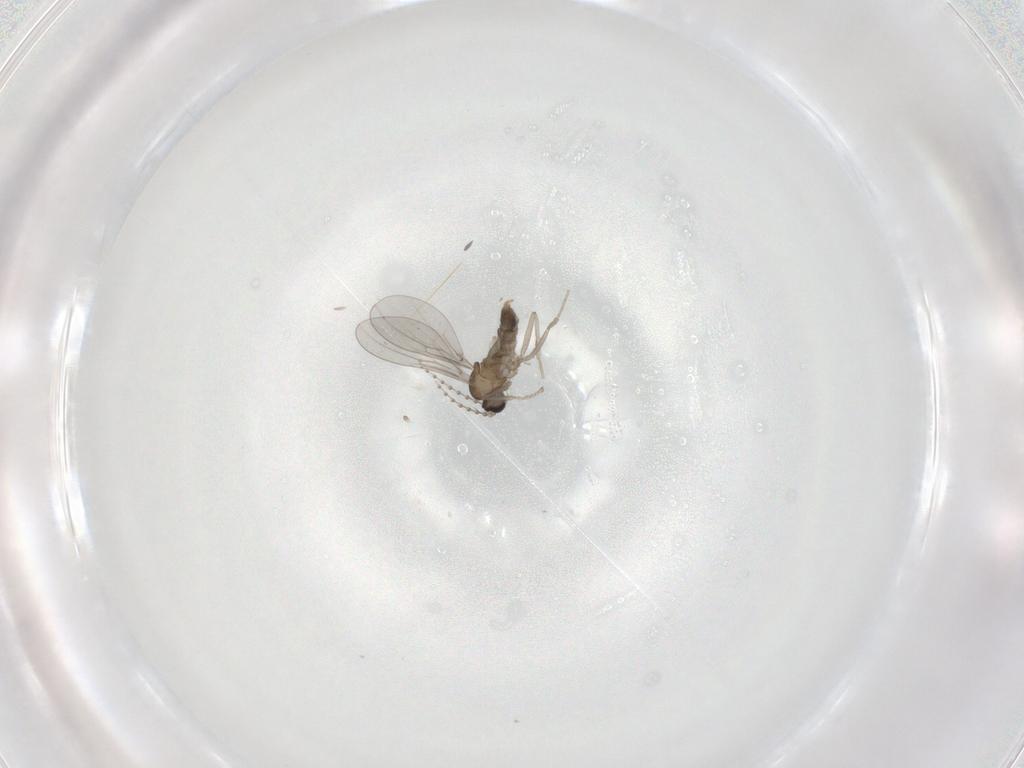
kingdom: Animalia
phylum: Arthropoda
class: Insecta
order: Diptera
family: Cecidomyiidae
